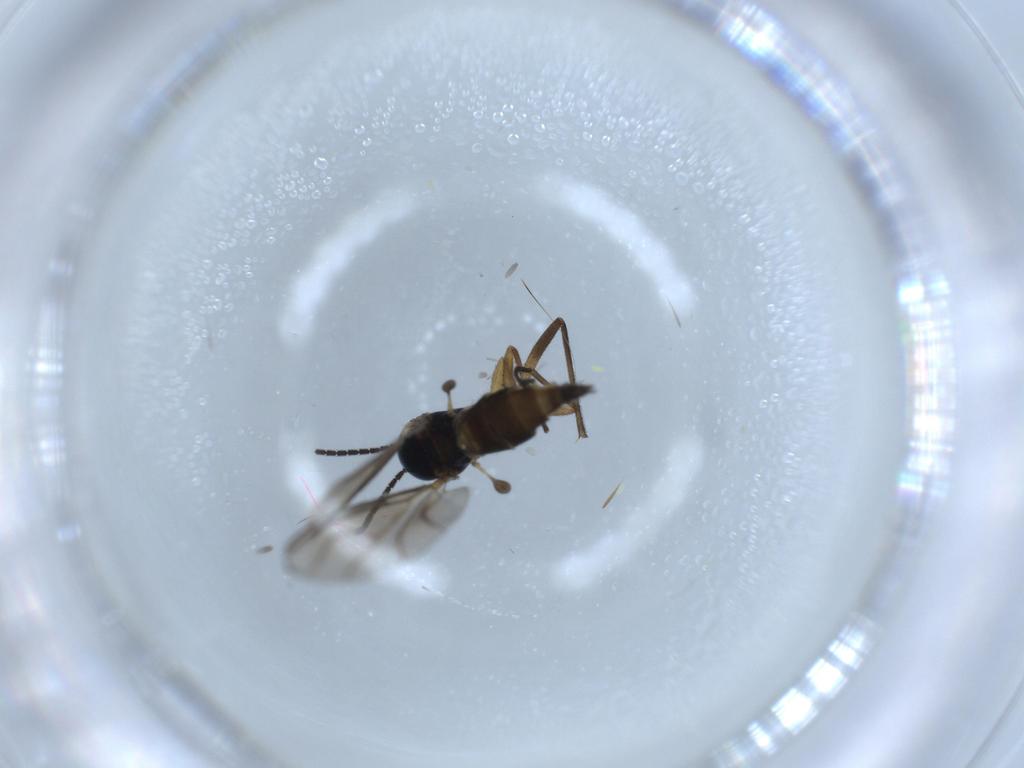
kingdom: Animalia
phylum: Arthropoda
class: Insecta
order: Diptera
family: Sciaridae
